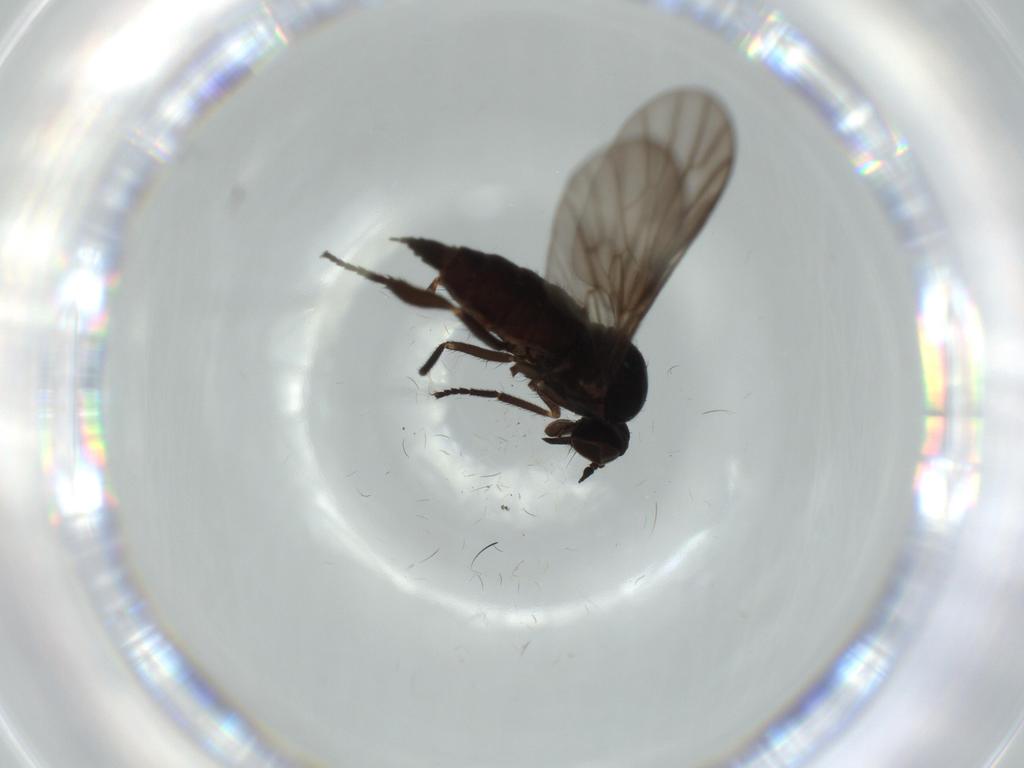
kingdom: Animalia
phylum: Arthropoda
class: Insecta
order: Diptera
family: Empididae
